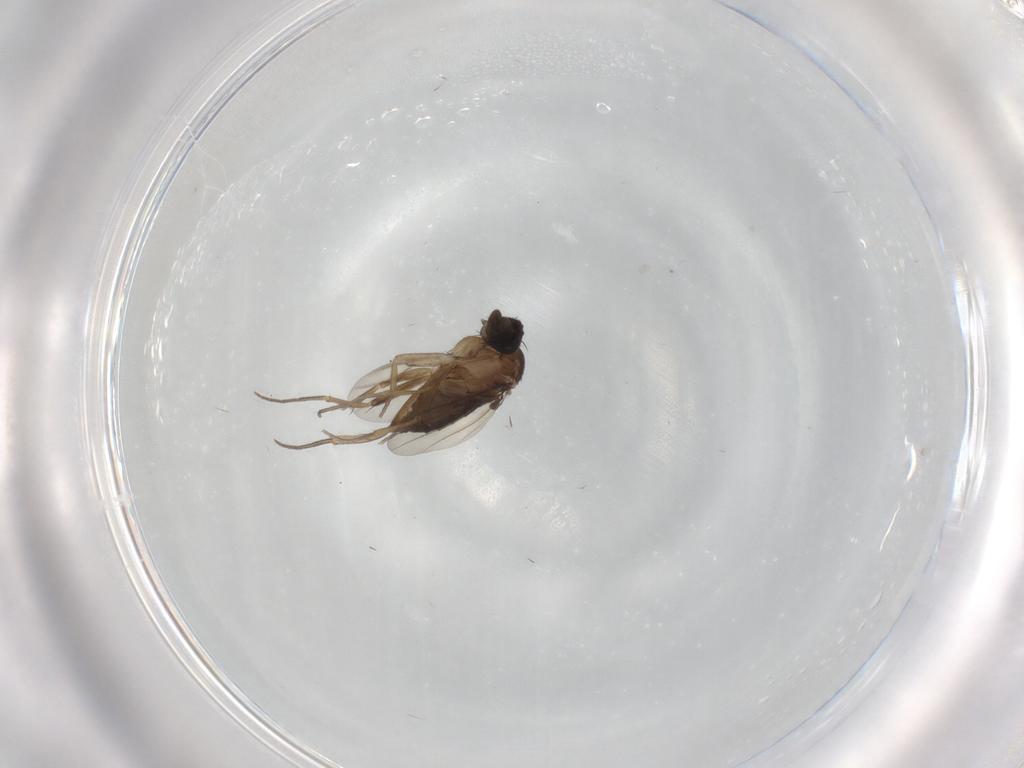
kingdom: Animalia
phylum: Arthropoda
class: Insecta
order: Diptera
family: Phoridae
